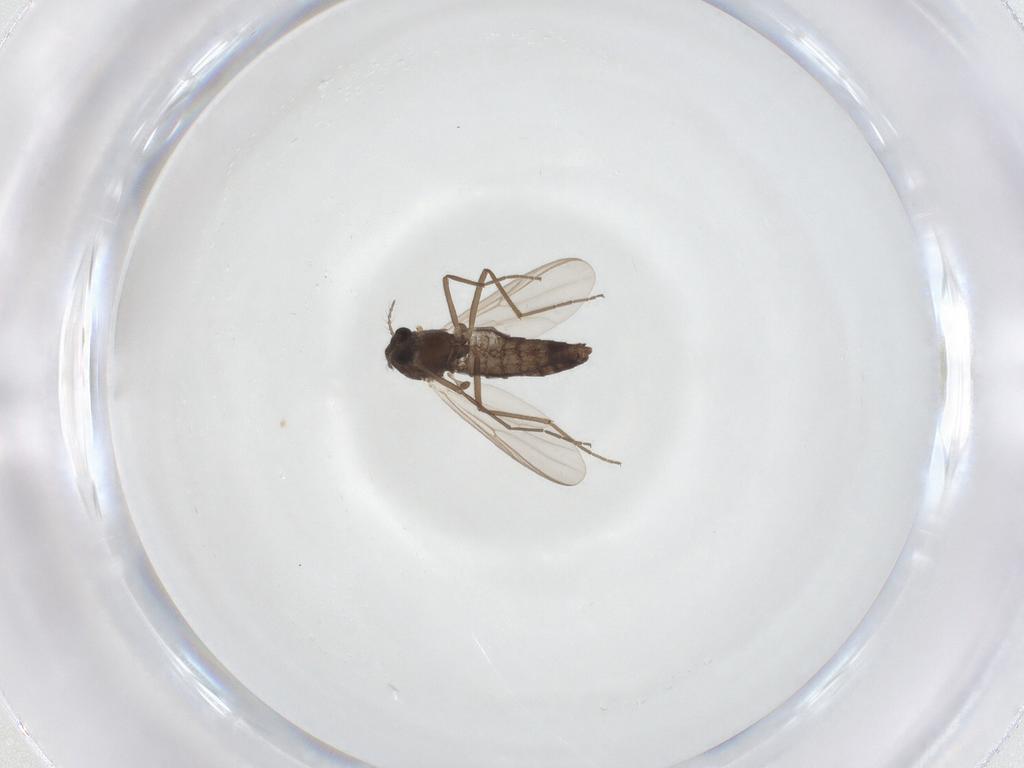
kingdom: Animalia
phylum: Arthropoda
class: Insecta
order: Diptera
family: Chironomidae
